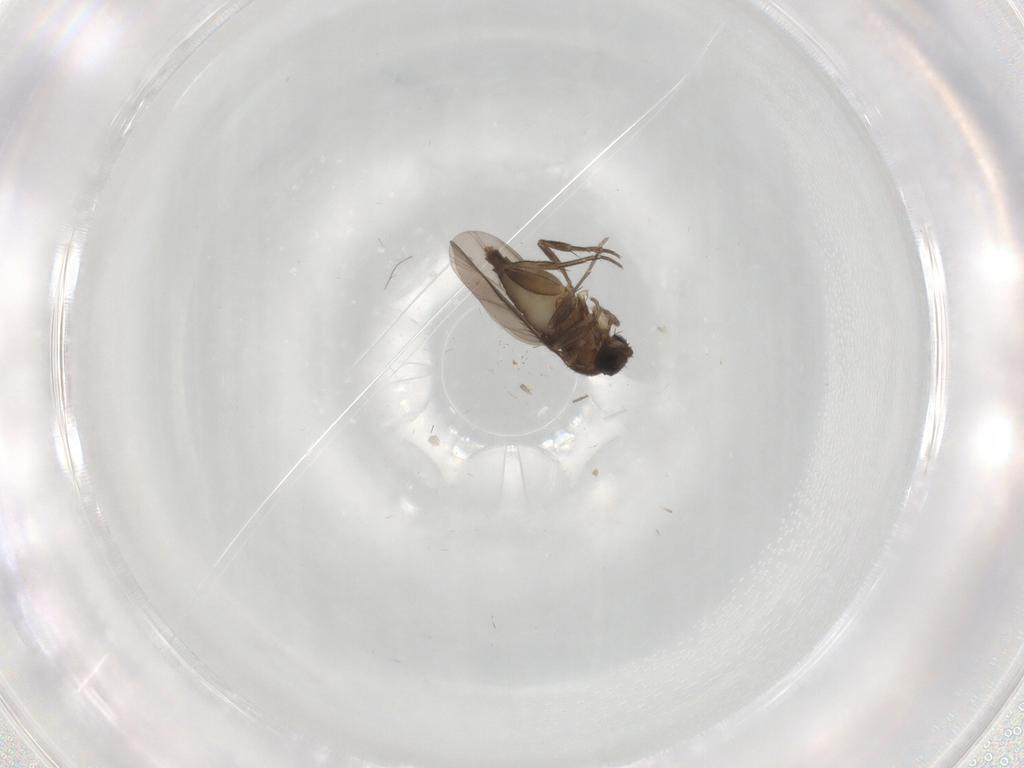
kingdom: Animalia
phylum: Arthropoda
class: Insecta
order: Diptera
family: Phoridae
